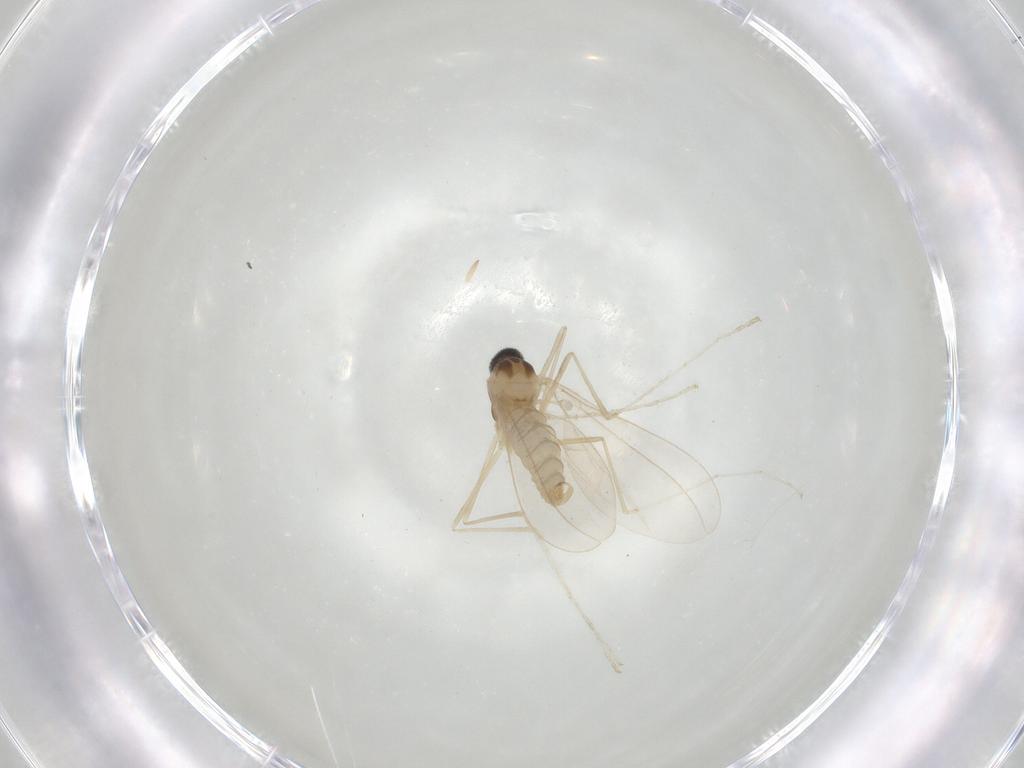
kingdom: Animalia
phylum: Arthropoda
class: Insecta
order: Diptera
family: Cecidomyiidae
